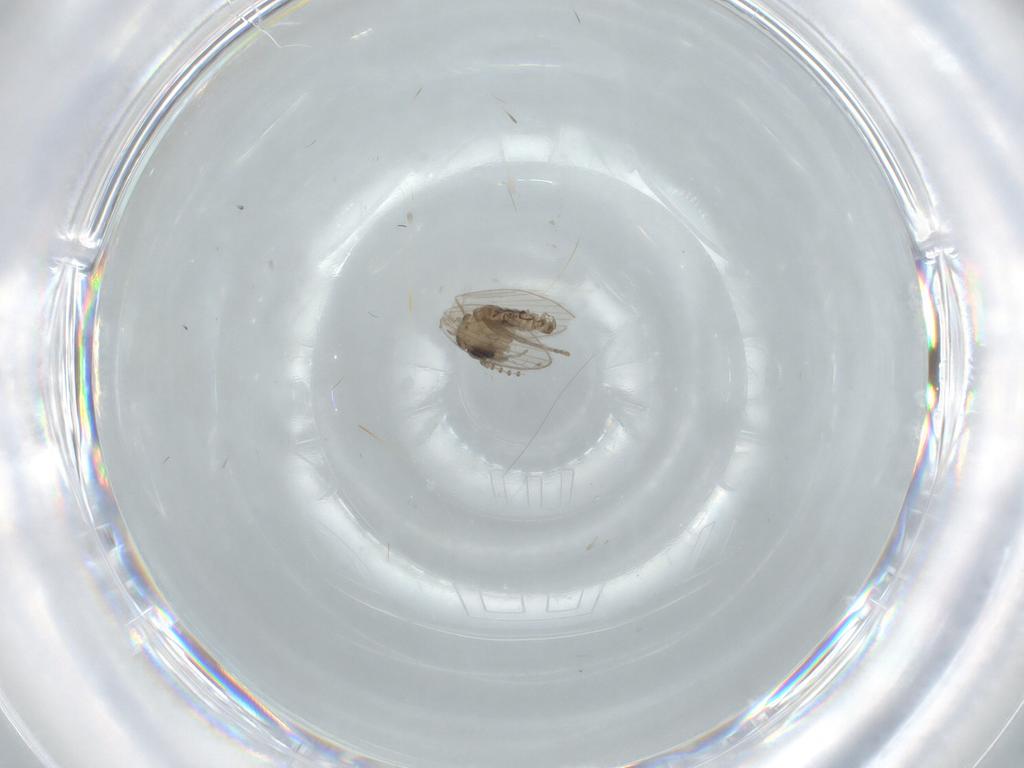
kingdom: Animalia
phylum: Arthropoda
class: Insecta
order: Diptera
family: Psychodidae
